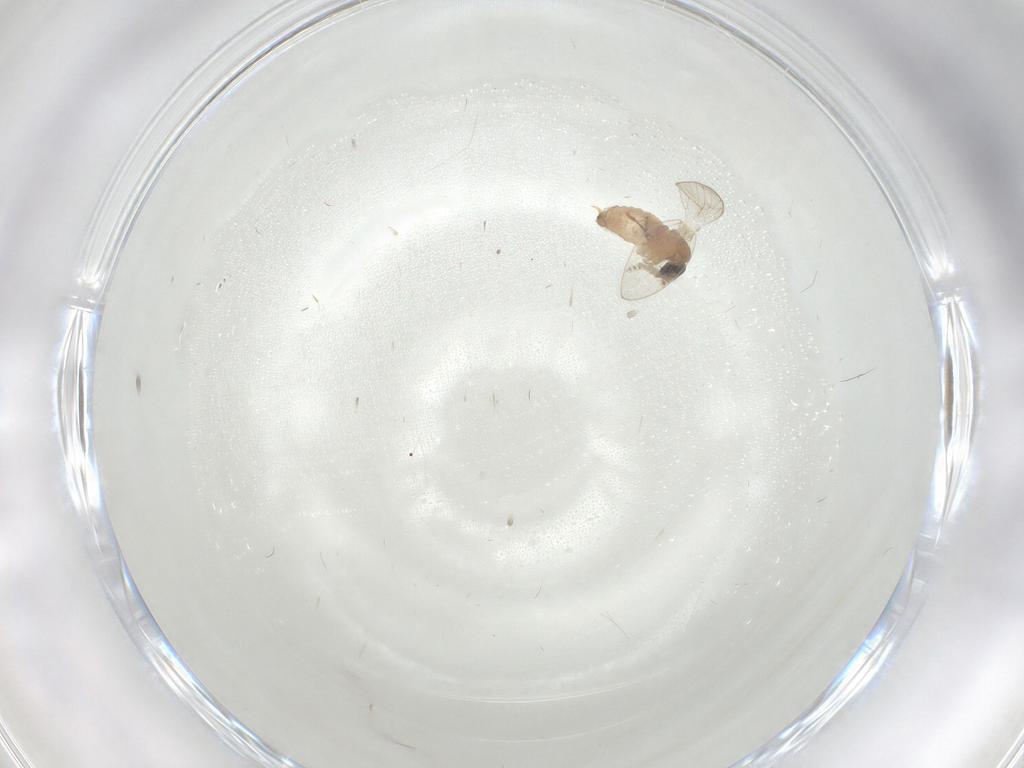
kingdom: Animalia
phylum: Arthropoda
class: Insecta
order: Diptera
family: Psychodidae
